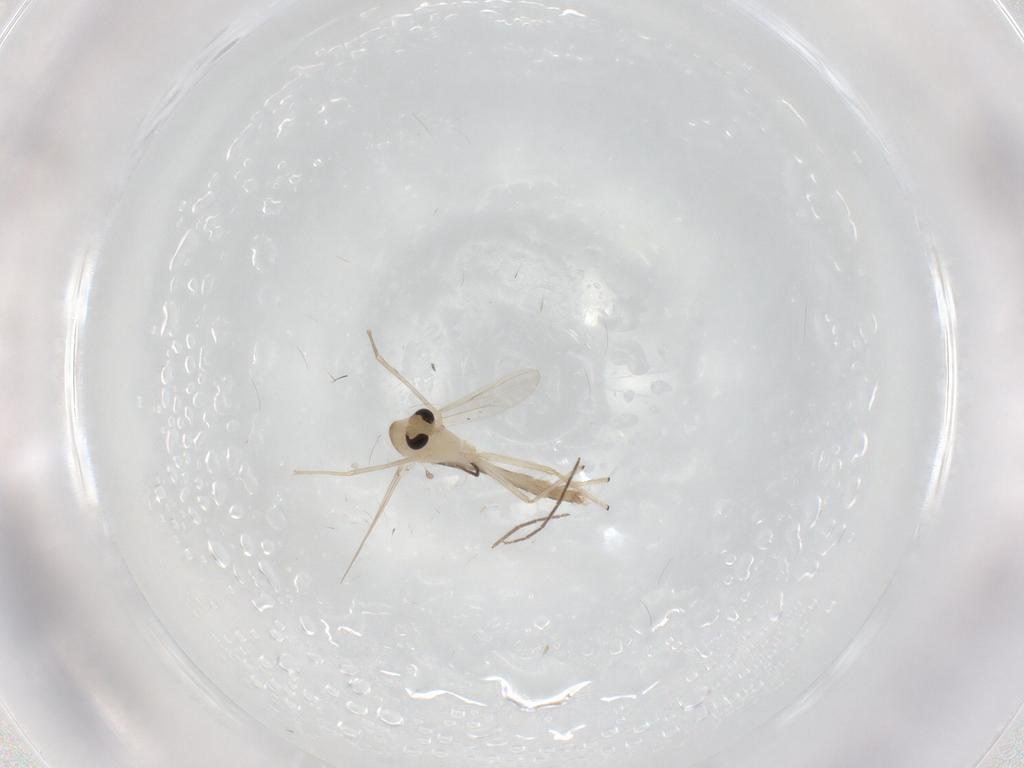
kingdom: Animalia
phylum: Arthropoda
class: Insecta
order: Diptera
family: Chironomidae
